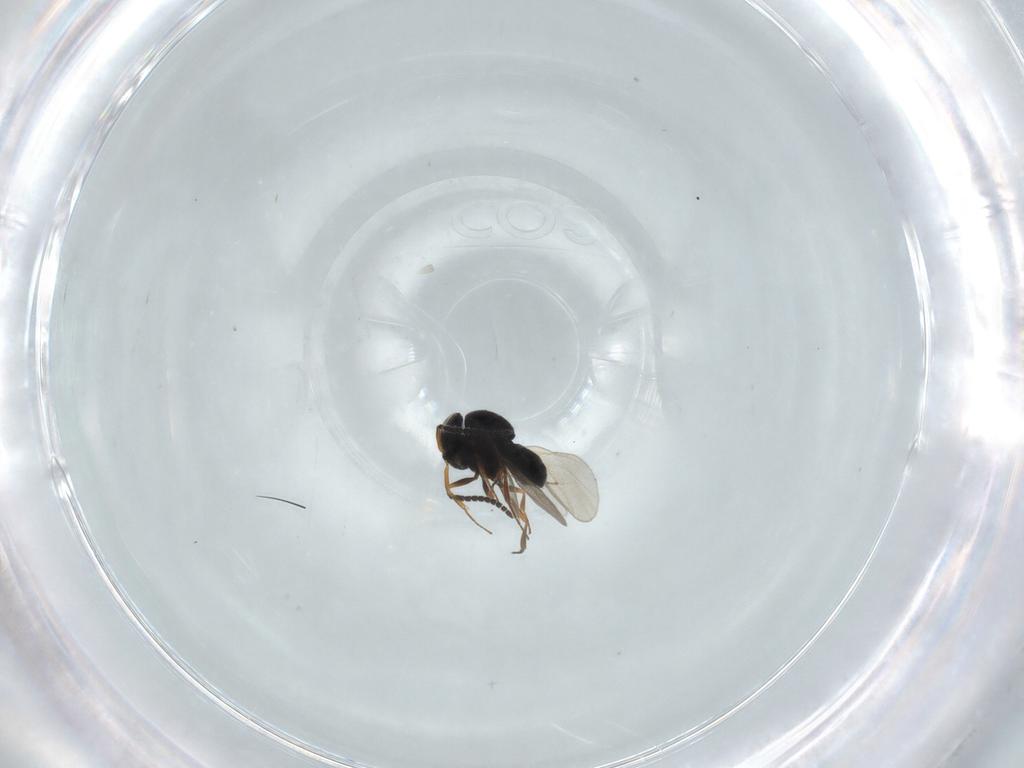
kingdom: Animalia
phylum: Arthropoda
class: Insecta
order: Hymenoptera
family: Scelionidae
